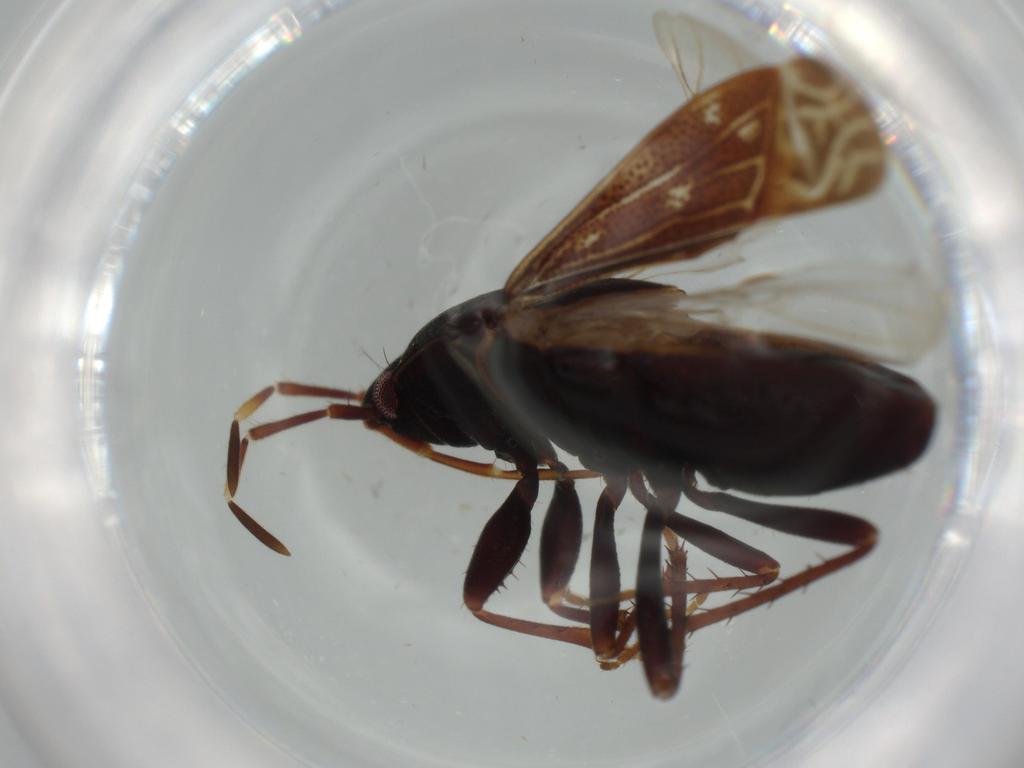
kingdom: Animalia
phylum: Arthropoda
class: Insecta
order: Hemiptera
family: Rhyparochromidae
